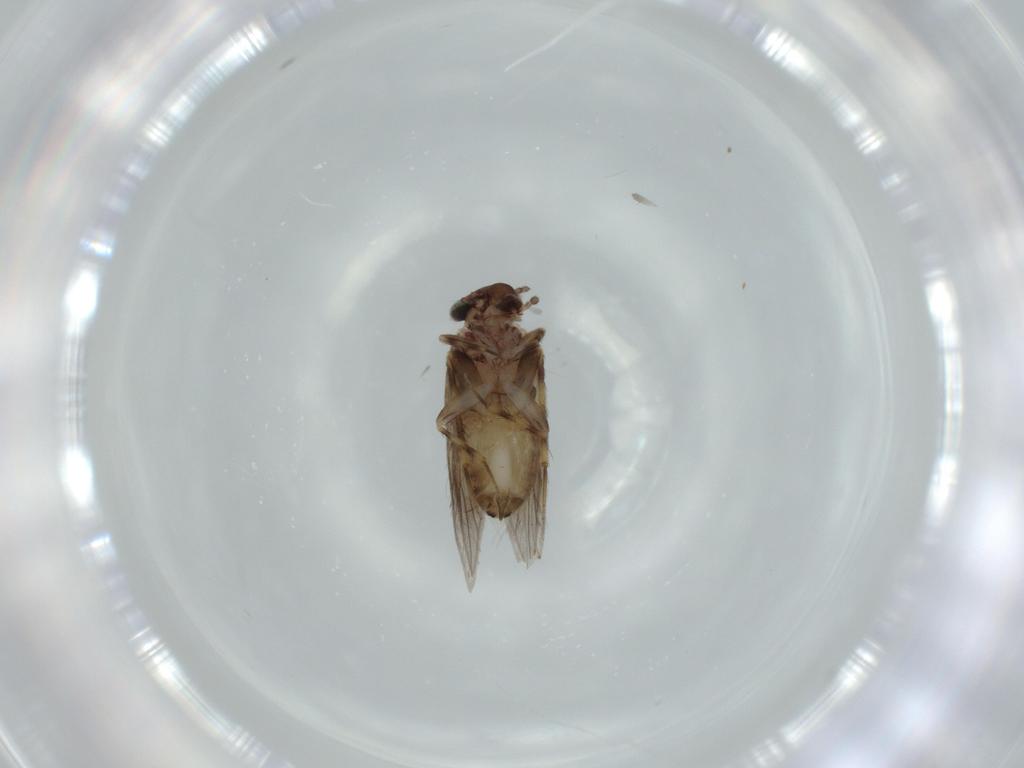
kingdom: Animalia
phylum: Arthropoda
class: Insecta
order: Psocodea
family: Lepidopsocidae
